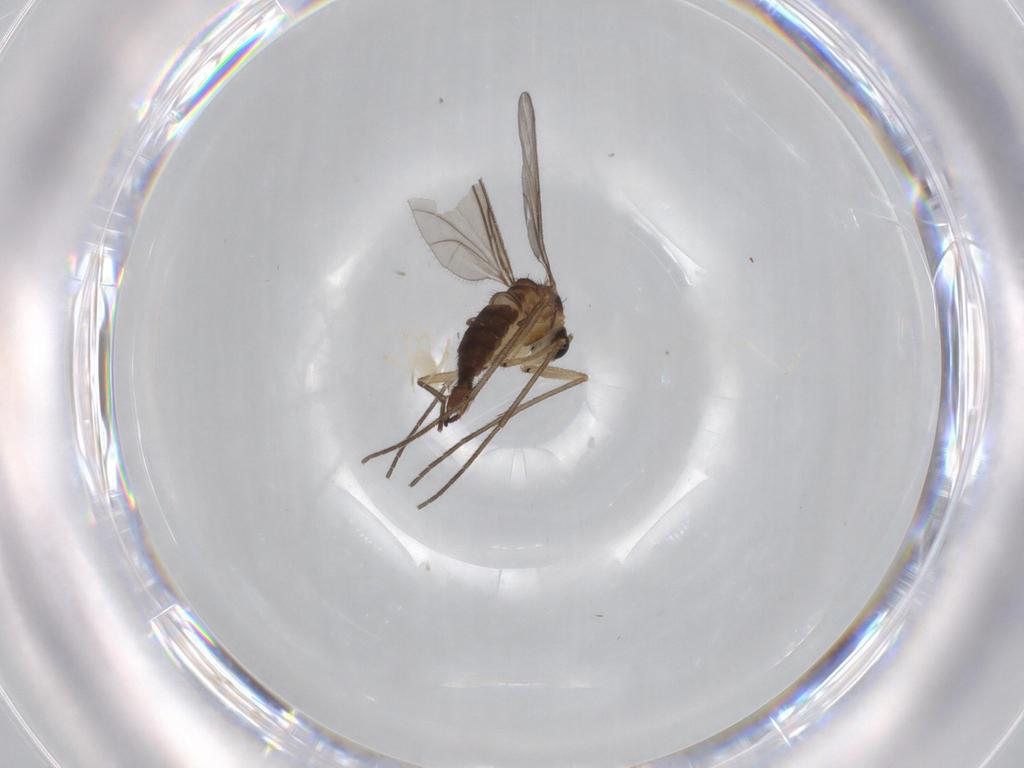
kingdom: Animalia
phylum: Arthropoda
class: Insecta
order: Diptera
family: Sciaridae
